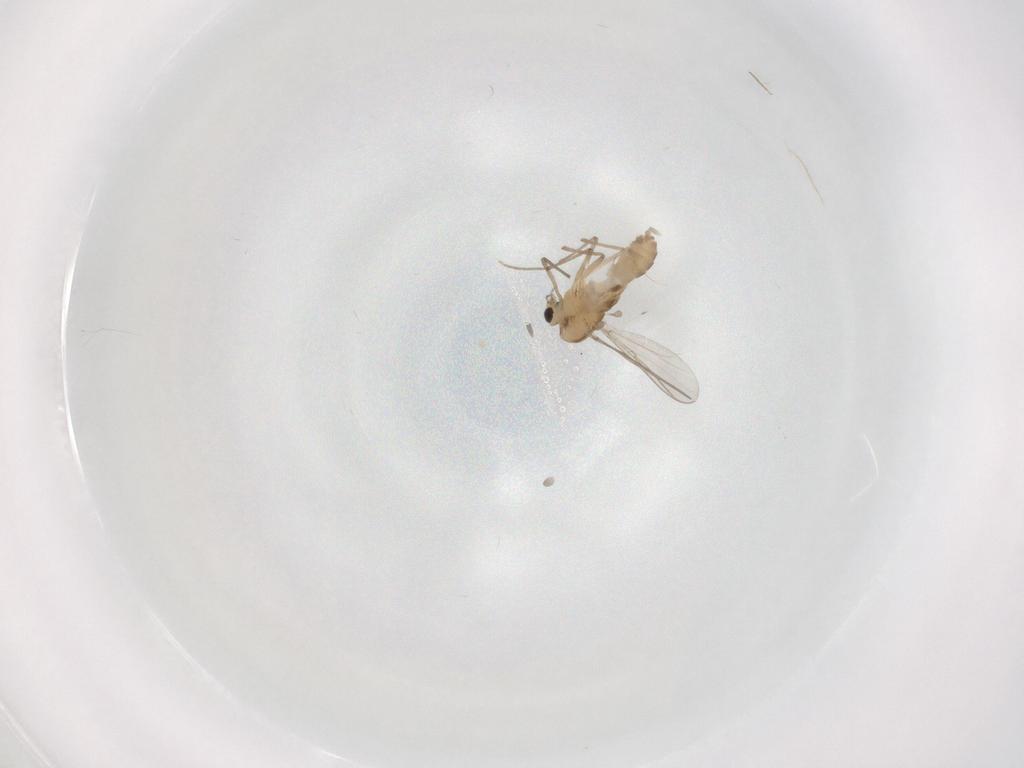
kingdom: Animalia
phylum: Arthropoda
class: Insecta
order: Diptera
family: Chironomidae
